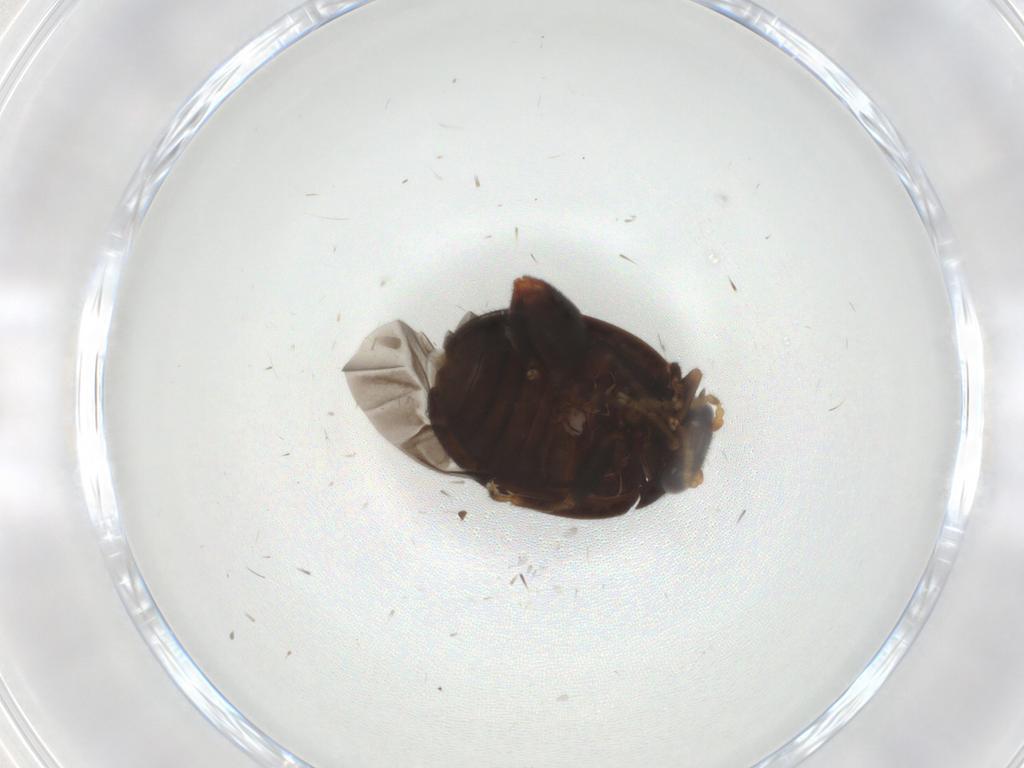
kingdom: Animalia
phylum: Arthropoda
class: Insecta
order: Coleoptera
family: Scirtidae
